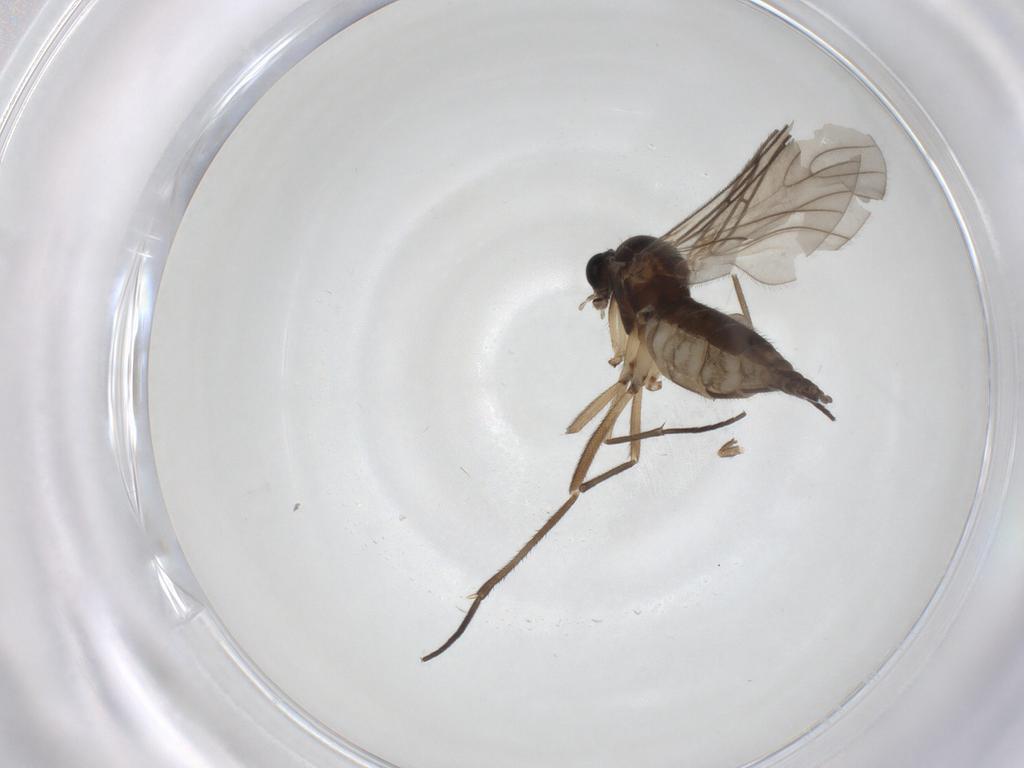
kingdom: Animalia
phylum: Arthropoda
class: Insecta
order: Diptera
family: Sciaridae
